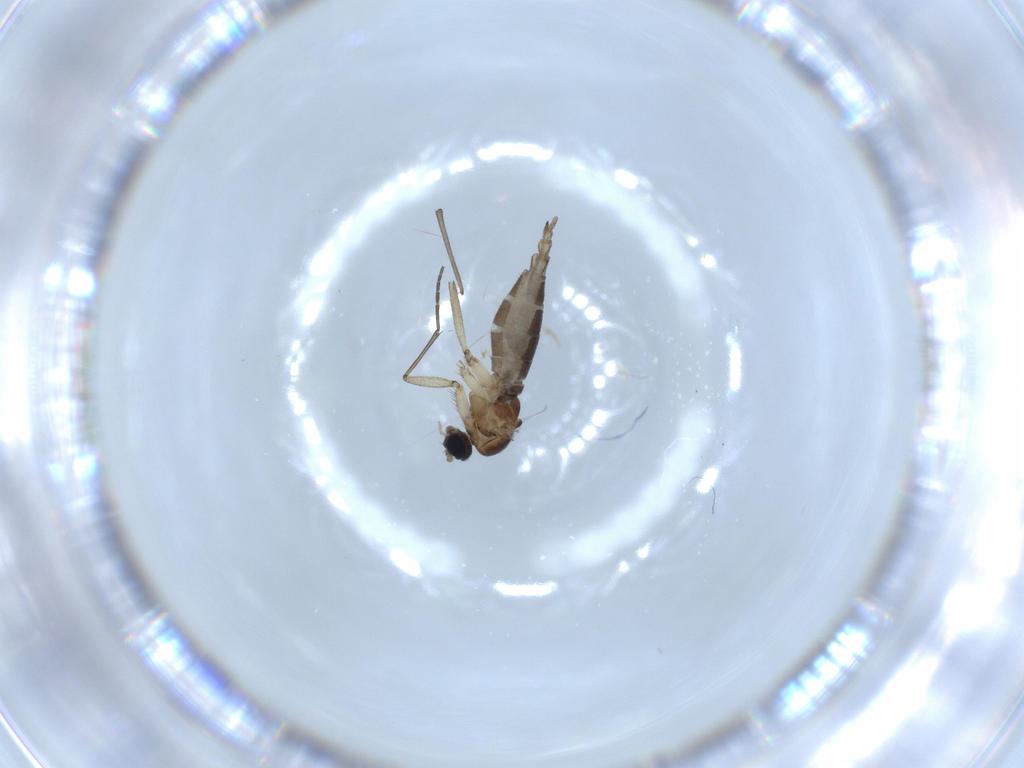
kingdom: Animalia
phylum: Arthropoda
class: Insecta
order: Diptera
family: Sciaridae
